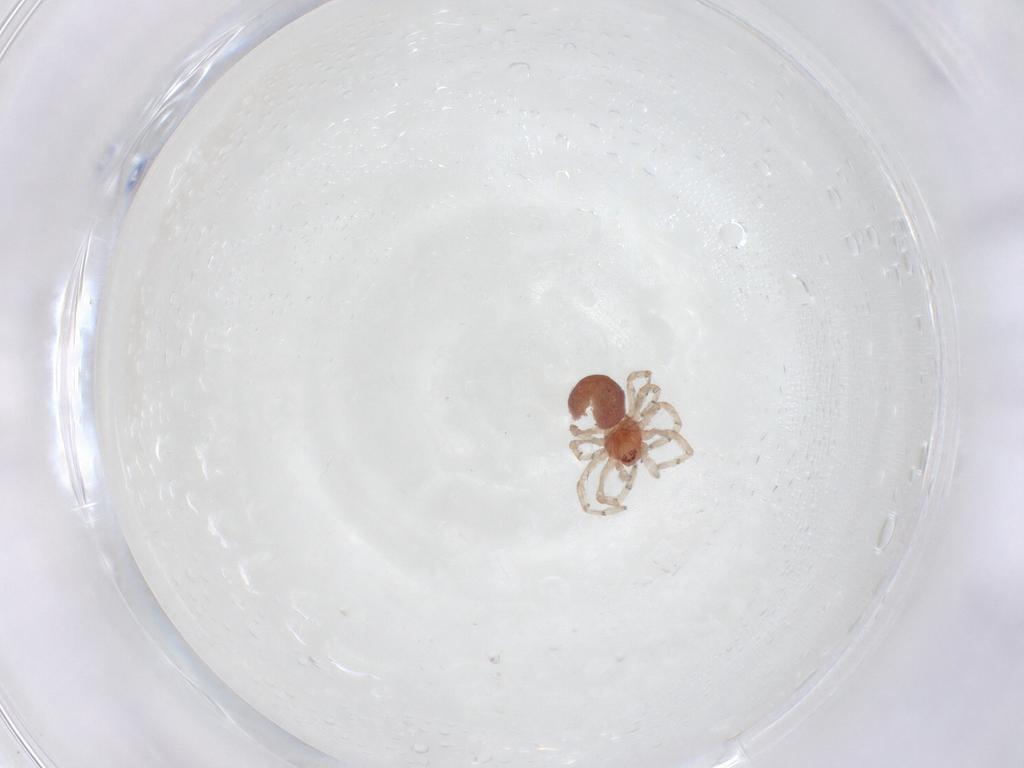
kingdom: Animalia
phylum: Arthropoda
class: Arachnida
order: Araneae
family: Dictynidae
